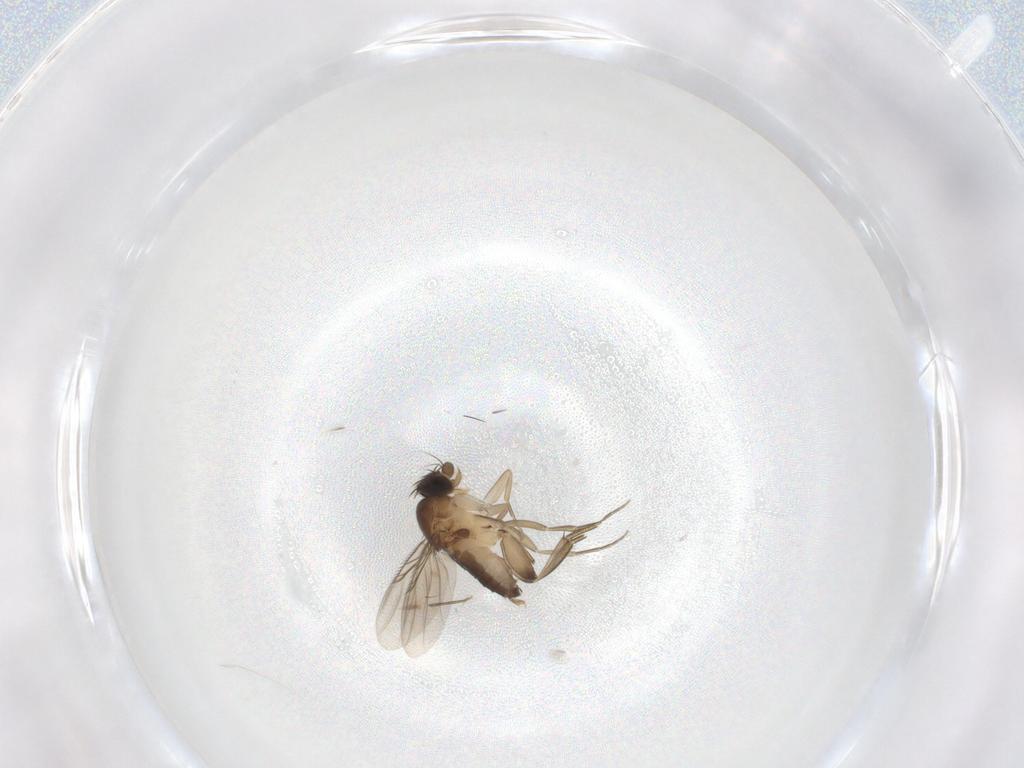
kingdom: Animalia
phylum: Arthropoda
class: Insecta
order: Diptera
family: Phoridae
